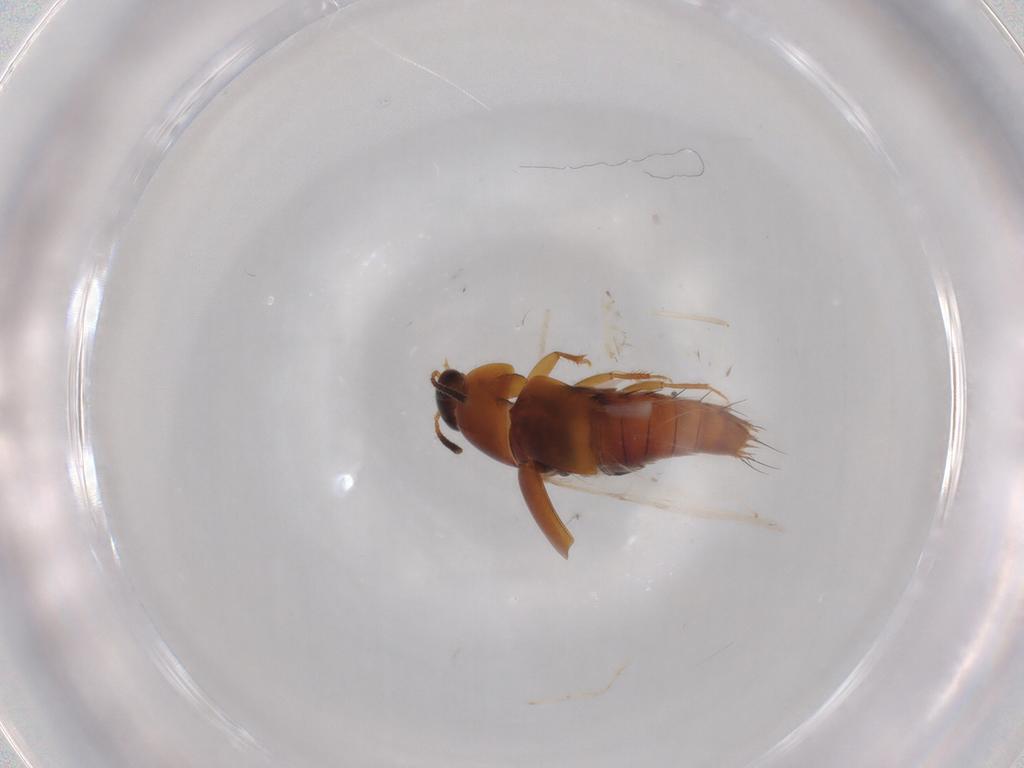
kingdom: Animalia
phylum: Arthropoda
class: Insecta
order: Coleoptera
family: Staphylinidae
